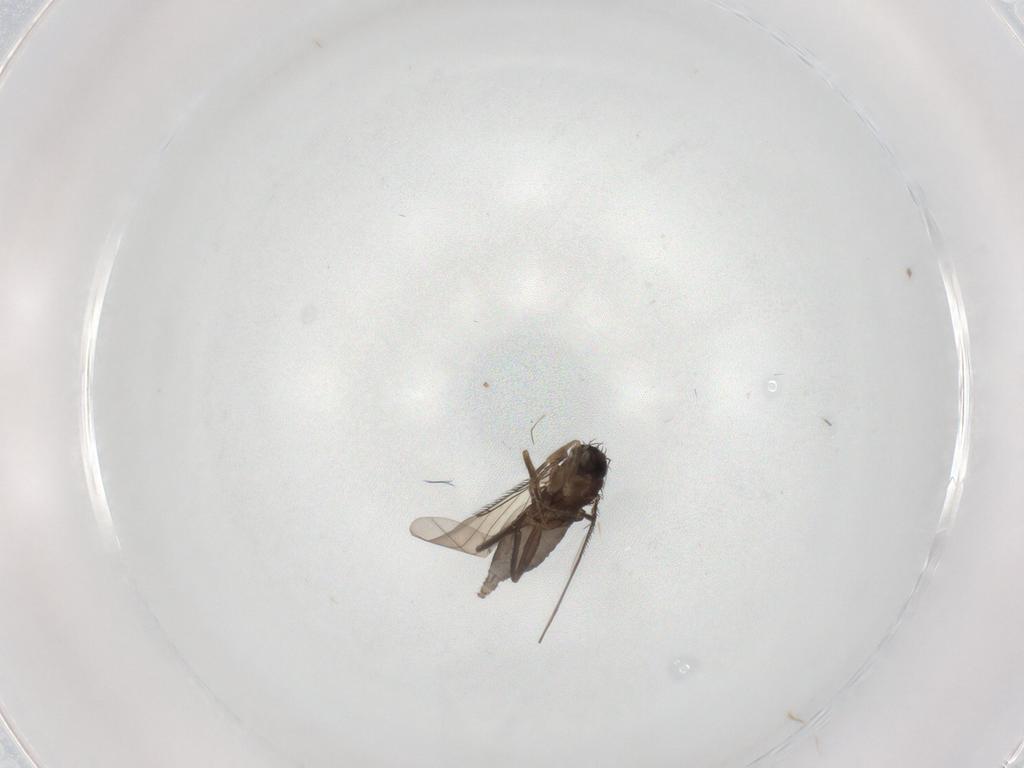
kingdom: Animalia
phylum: Arthropoda
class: Insecta
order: Diptera
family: Phoridae
